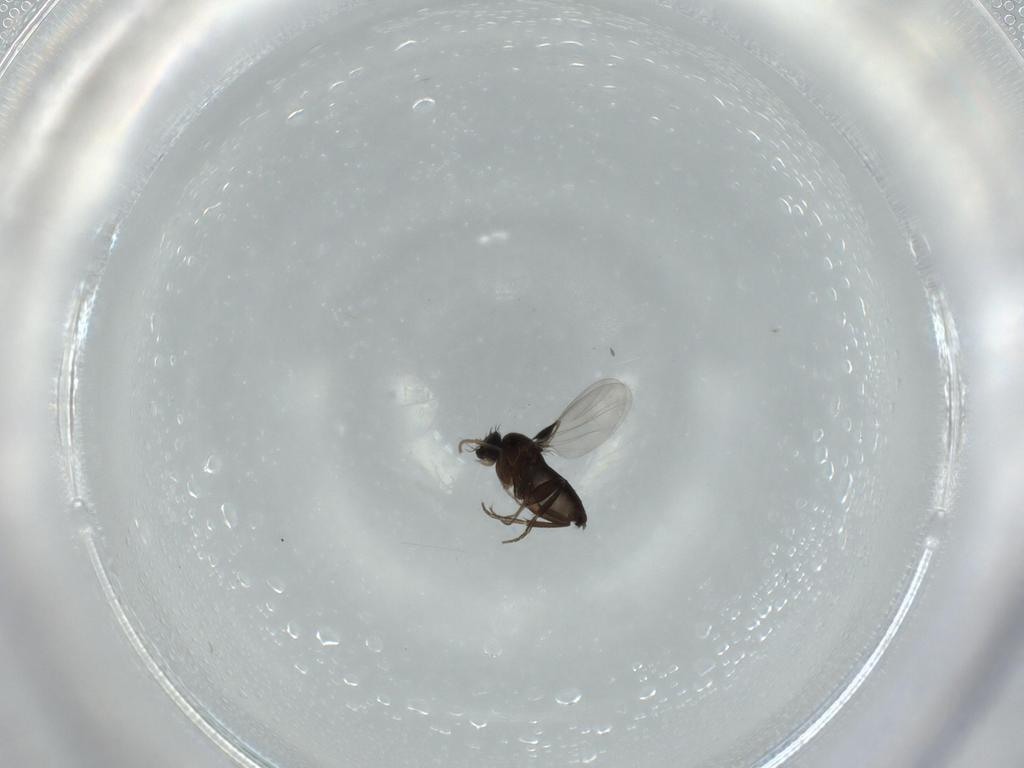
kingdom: Animalia
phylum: Arthropoda
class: Insecta
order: Diptera
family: Phoridae
